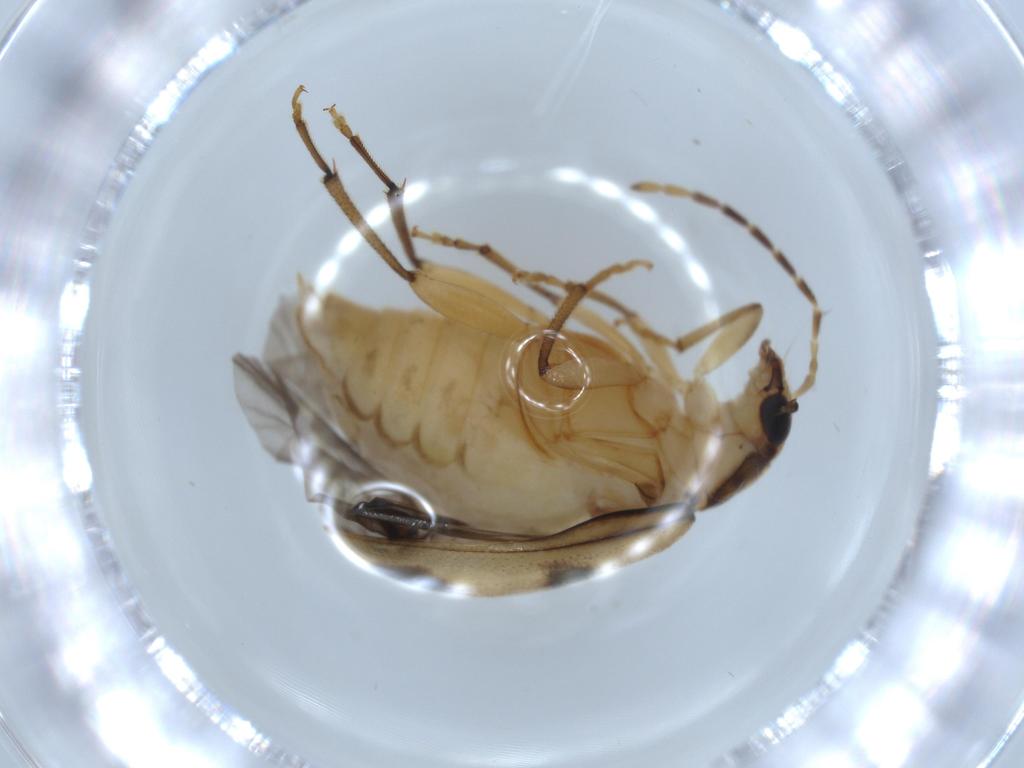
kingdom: Animalia
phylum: Arthropoda
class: Insecta
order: Coleoptera
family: Chrysomelidae
